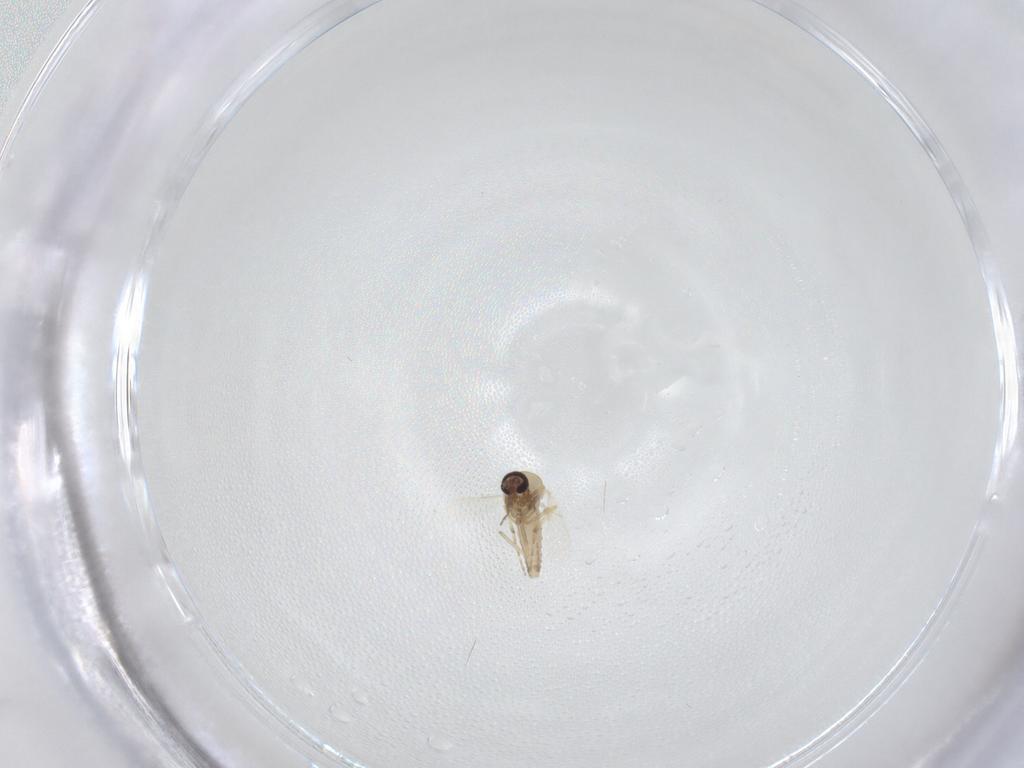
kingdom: Animalia
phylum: Arthropoda
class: Insecta
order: Diptera
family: Ceratopogonidae
